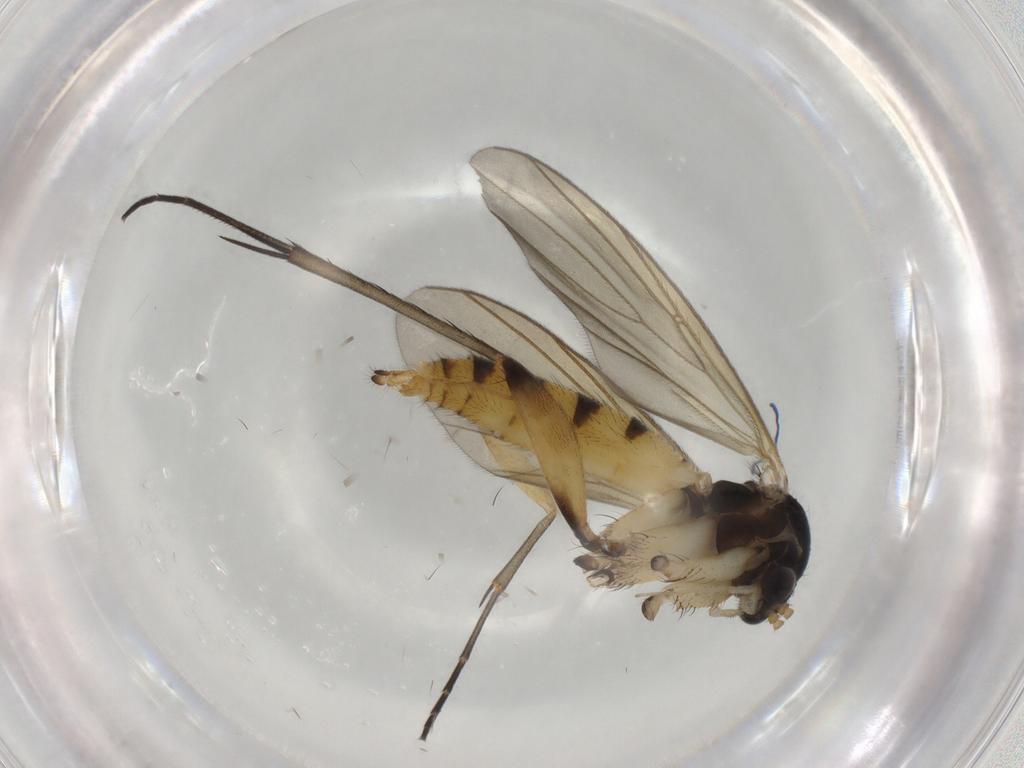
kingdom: Animalia
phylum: Arthropoda
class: Insecta
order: Diptera
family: Mycetophilidae
